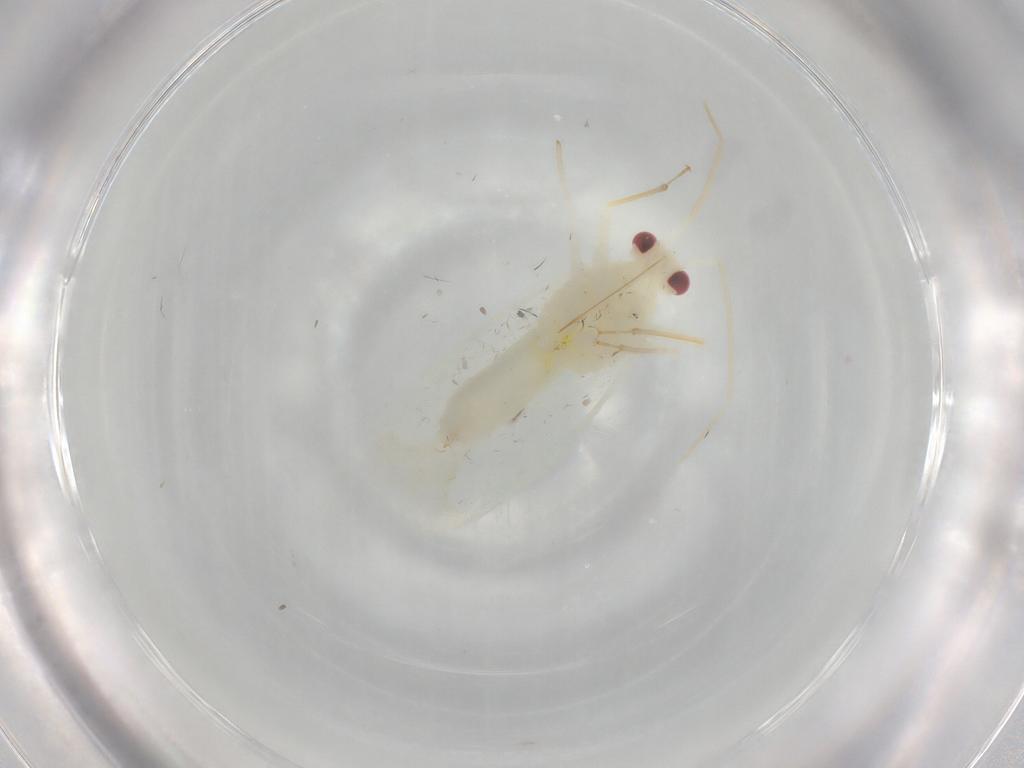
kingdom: Animalia
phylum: Arthropoda
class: Insecta
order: Hemiptera
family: Miridae
